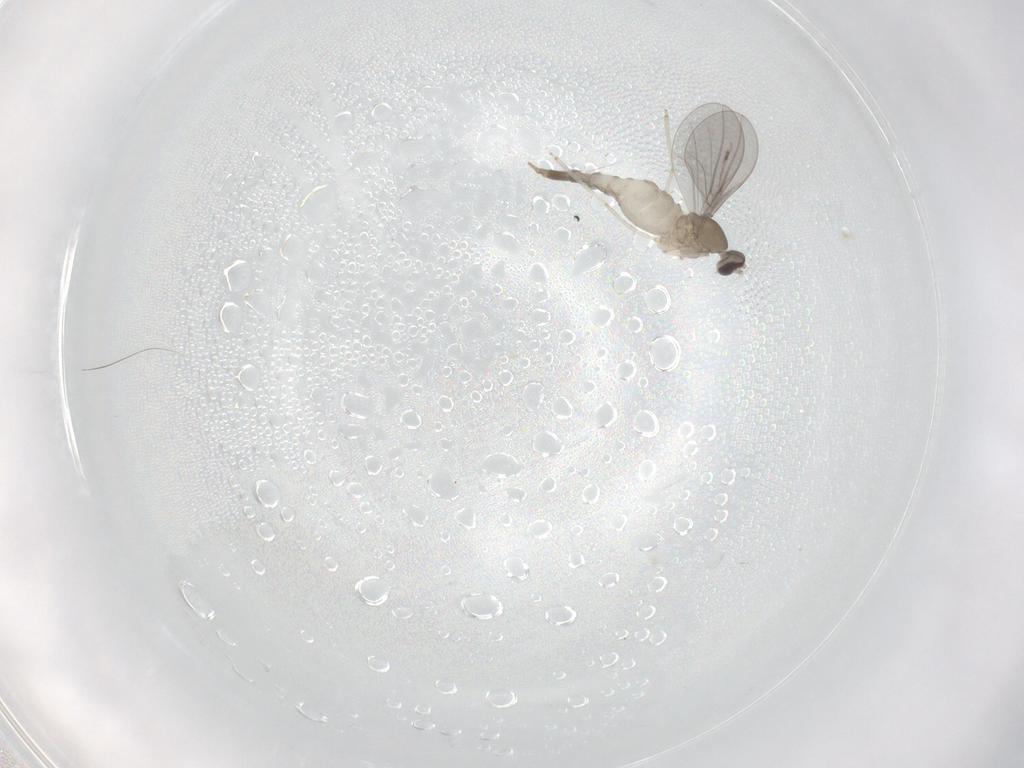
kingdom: Animalia
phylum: Arthropoda
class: Insecta
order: Diptera
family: Cecidomyiidae
